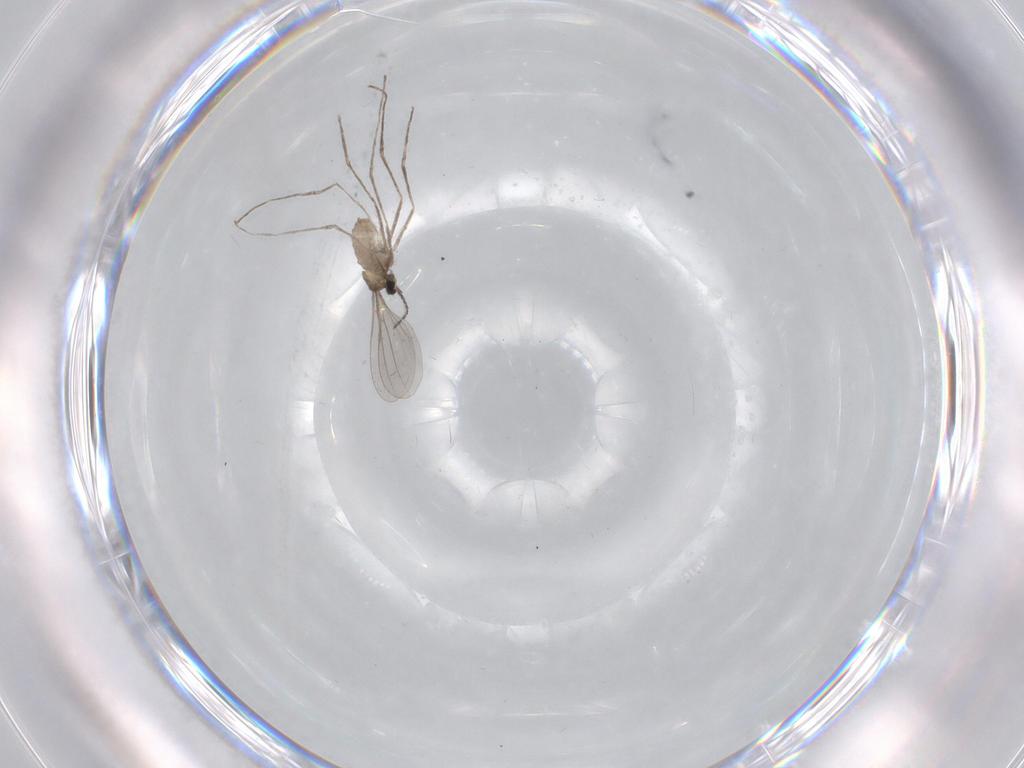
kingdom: Animalia
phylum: Arthropoda
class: Insecta
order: Diptera
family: Cecidomyiidae
